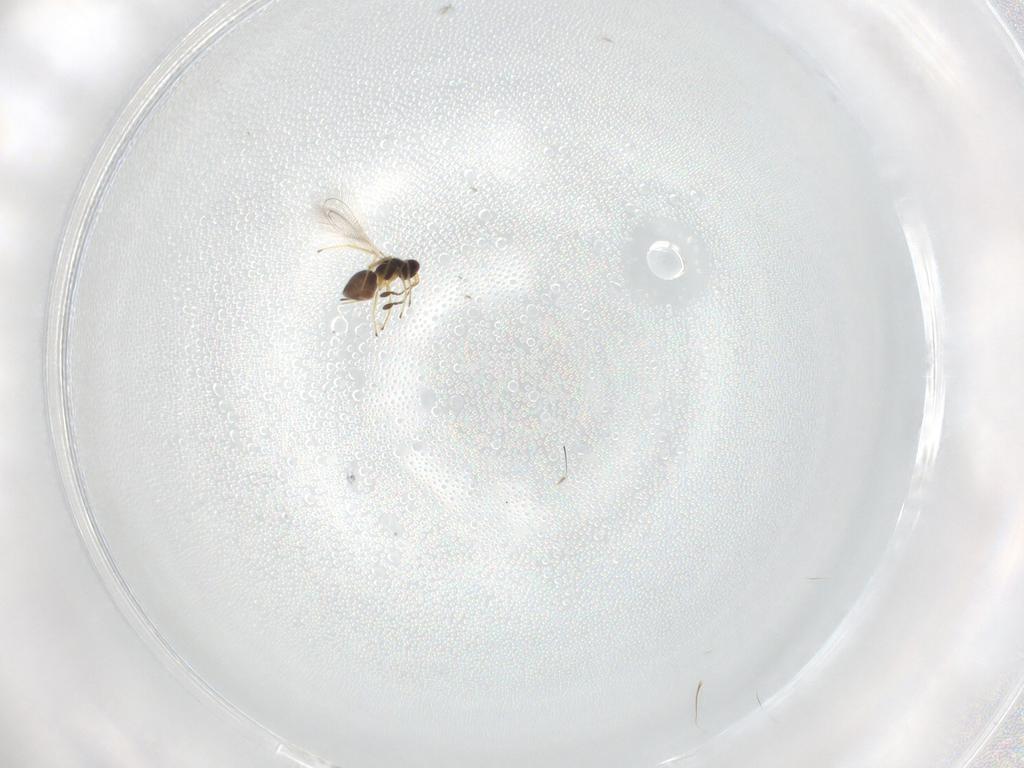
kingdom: Animalia
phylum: Arthropoda
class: Insecta
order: Hymenoptera
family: Mymaridae
